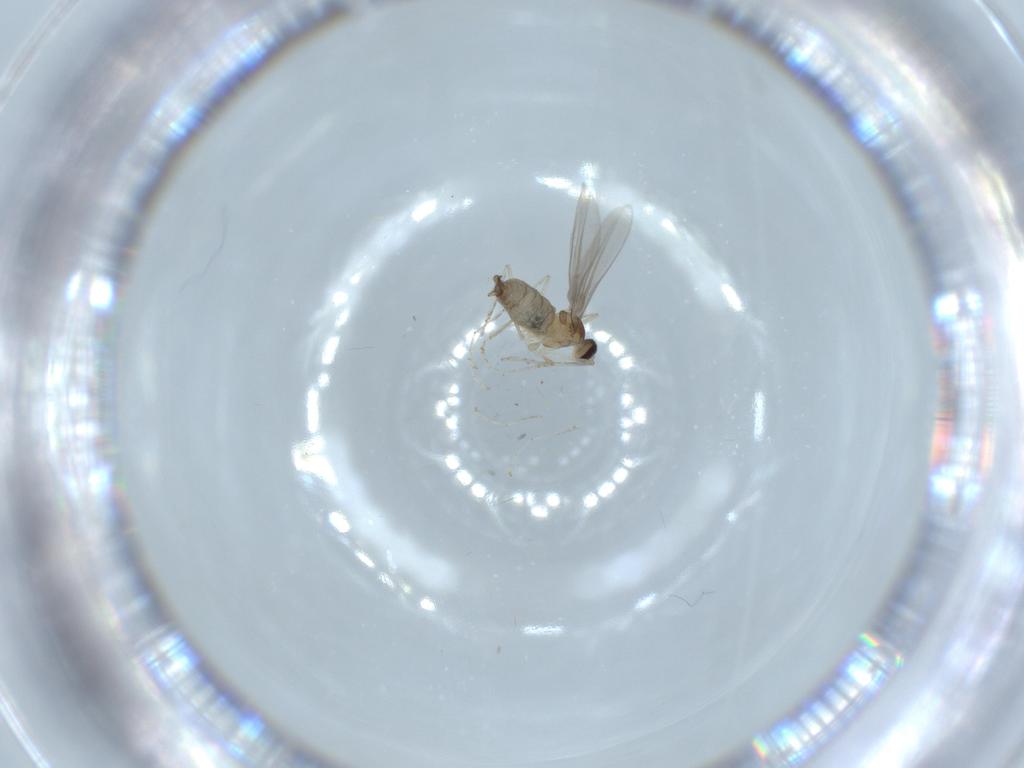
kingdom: Animalia
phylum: Arthropoda
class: Insecta
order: Diptera
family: Cecidomyiidae
